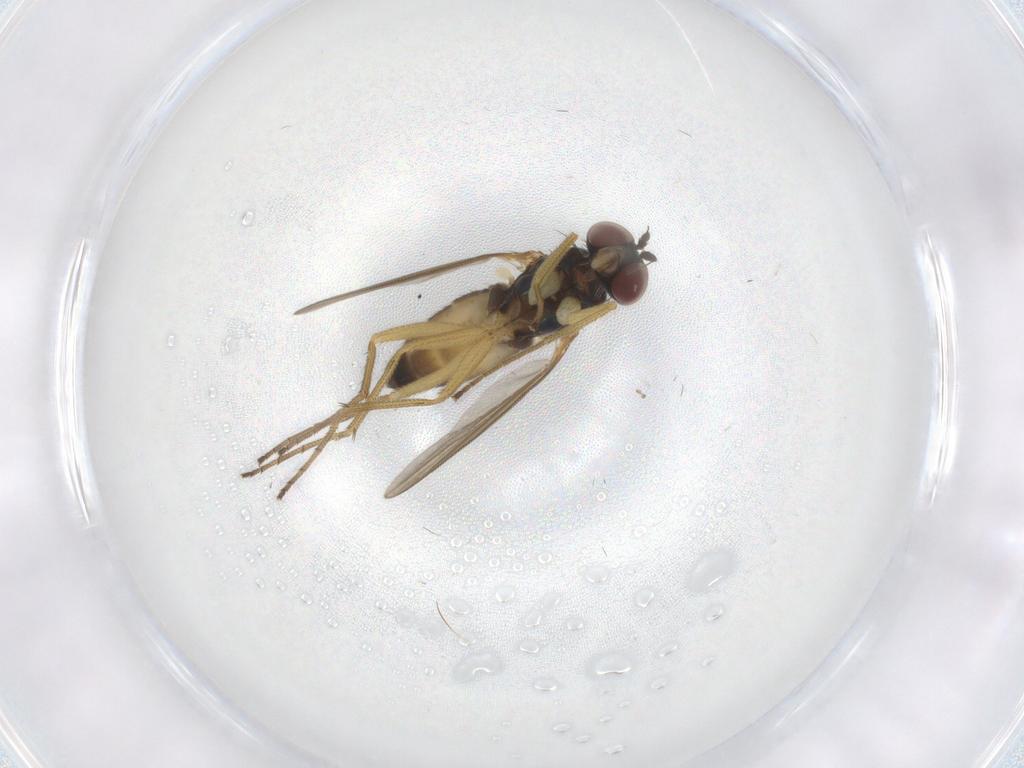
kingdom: Animalia
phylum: Arthropoda
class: Insecta
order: Diptera
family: Dolichopodidae
